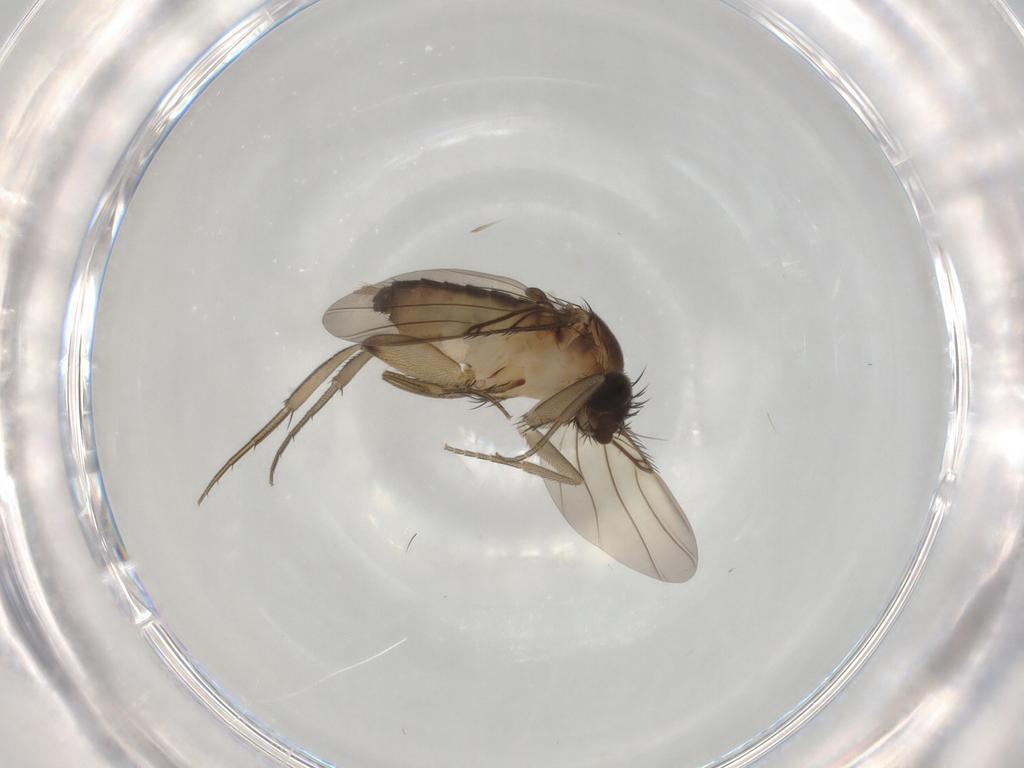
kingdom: Animalia
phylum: Arthropoda
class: Insecta
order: Diptera
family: Phoridae
